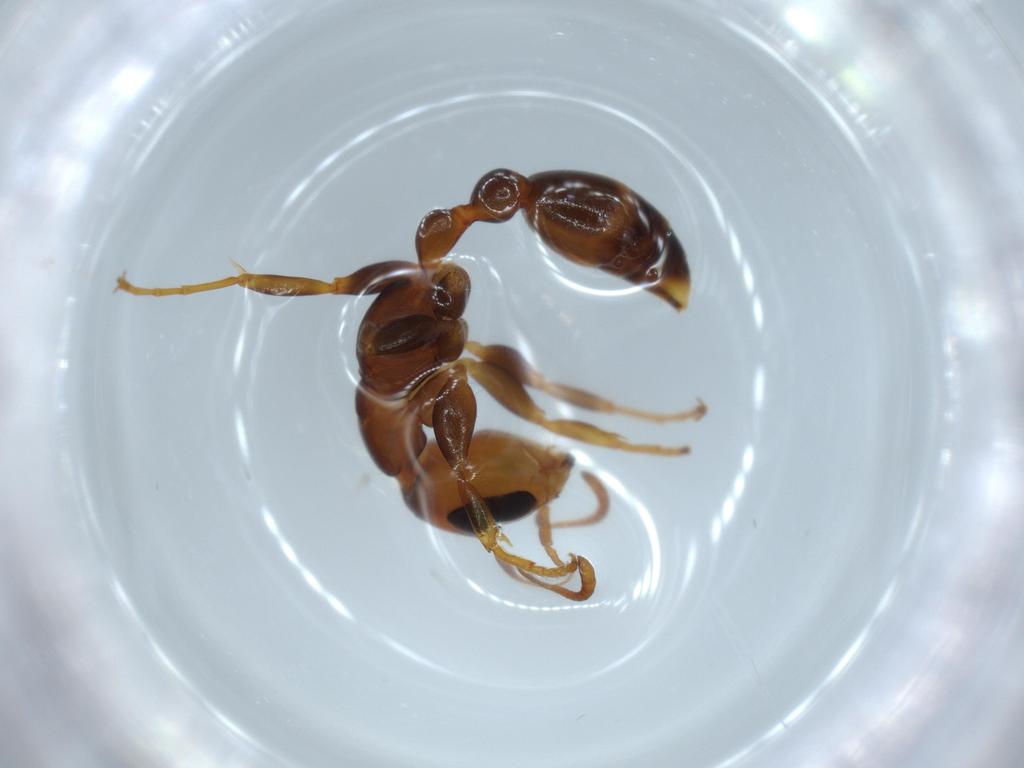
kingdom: Animalia
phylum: Arthropoda
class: Insecta
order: Hymenoptera
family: Formicidae
